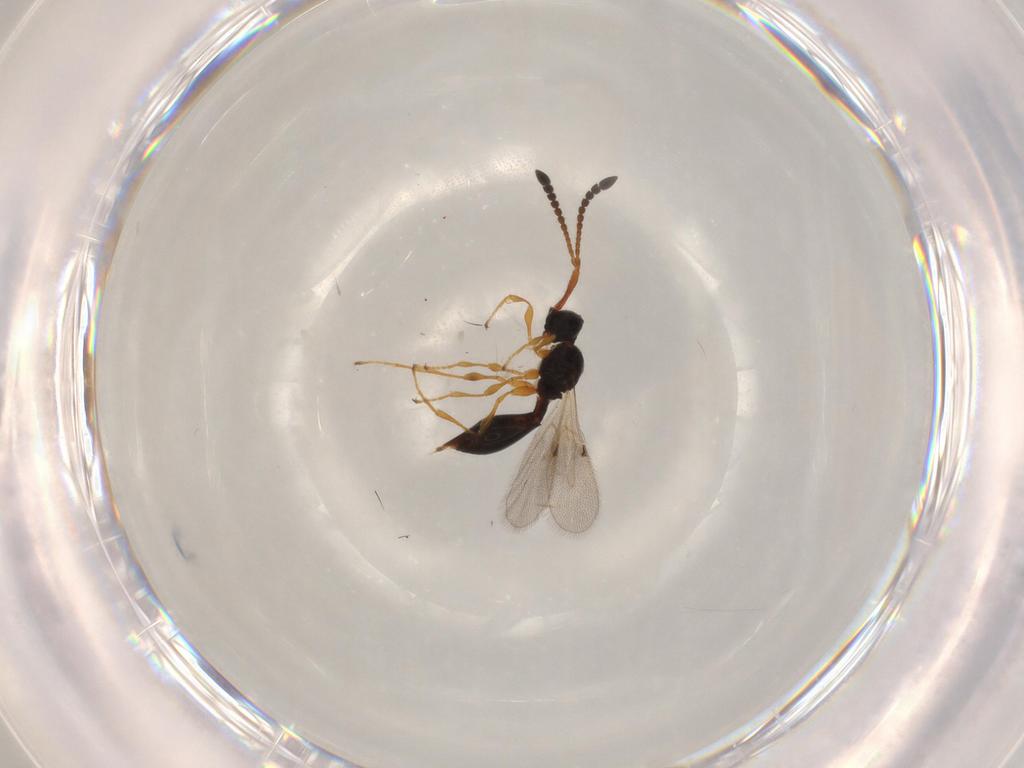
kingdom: Animalia
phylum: Arthropoda
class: Insecta
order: Hymenoptera
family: Diapriidae
